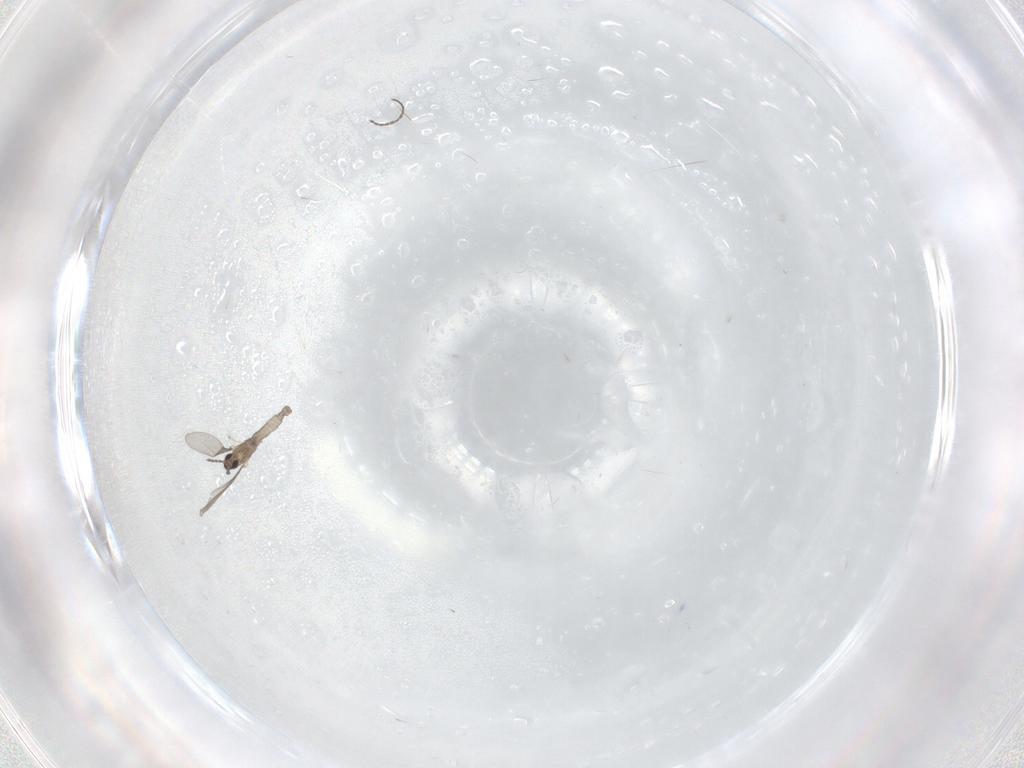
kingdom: Animalia
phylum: Arthropoda
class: Insecta
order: Diptera
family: Cecidomyiidae
